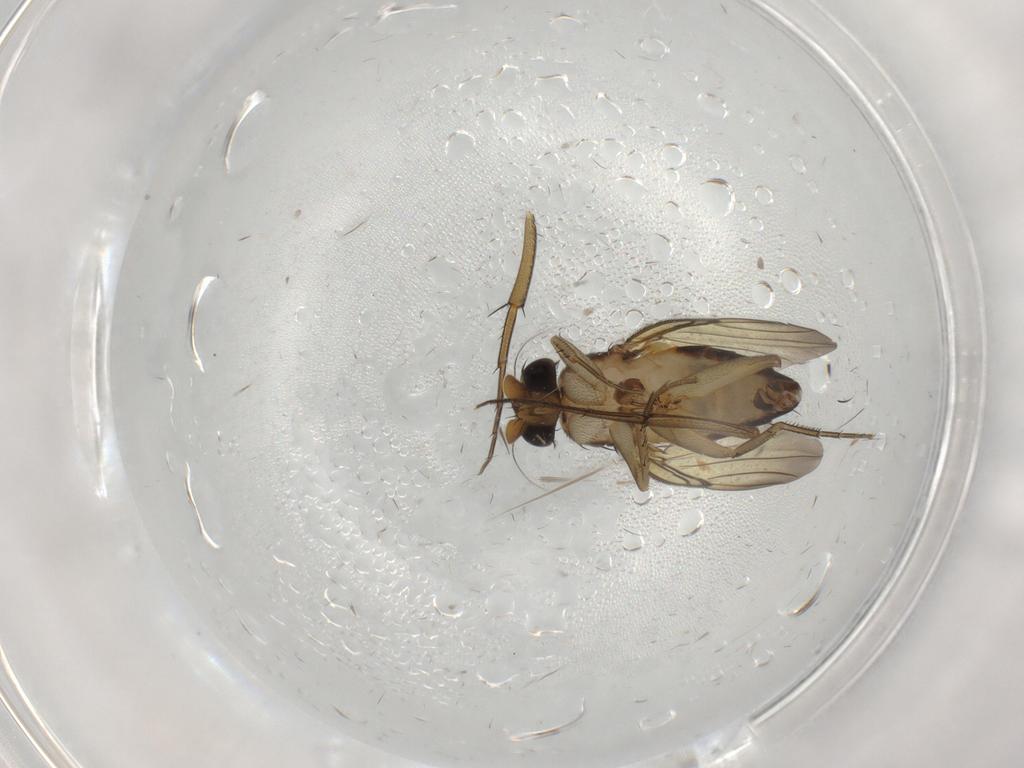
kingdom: Animalia
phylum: Arthropoda
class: Insecta
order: Diptera
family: Phoridae
